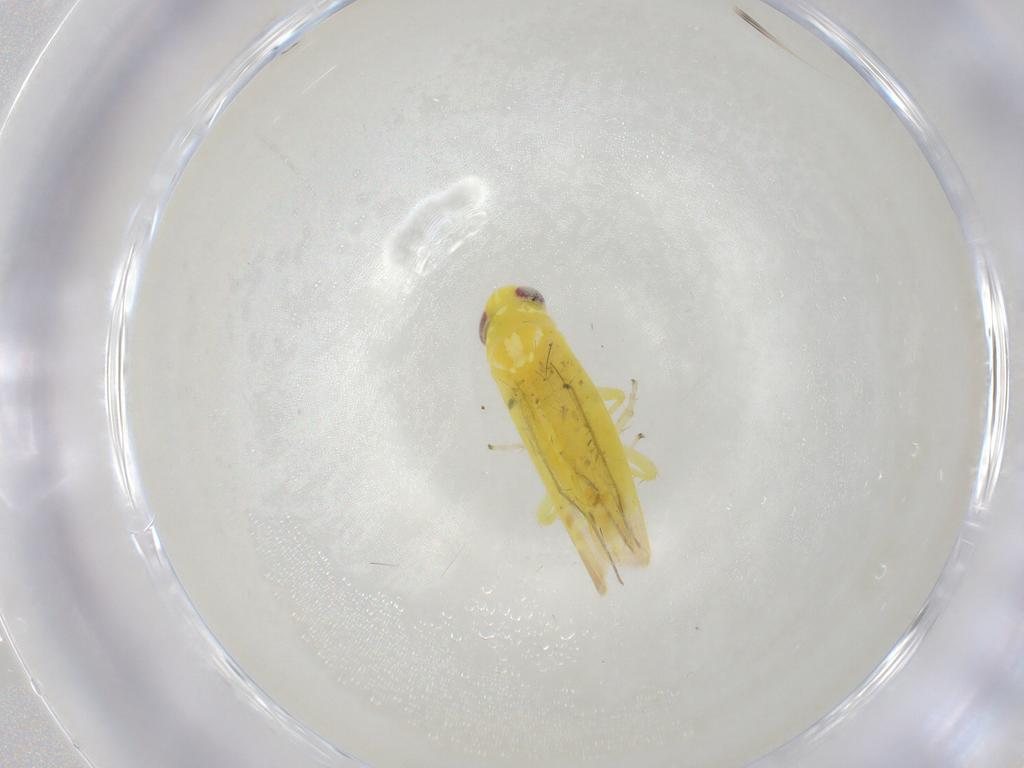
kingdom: Animalia
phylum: Arthropoda
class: Insecta
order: Hemiptera
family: Cicadellidae
